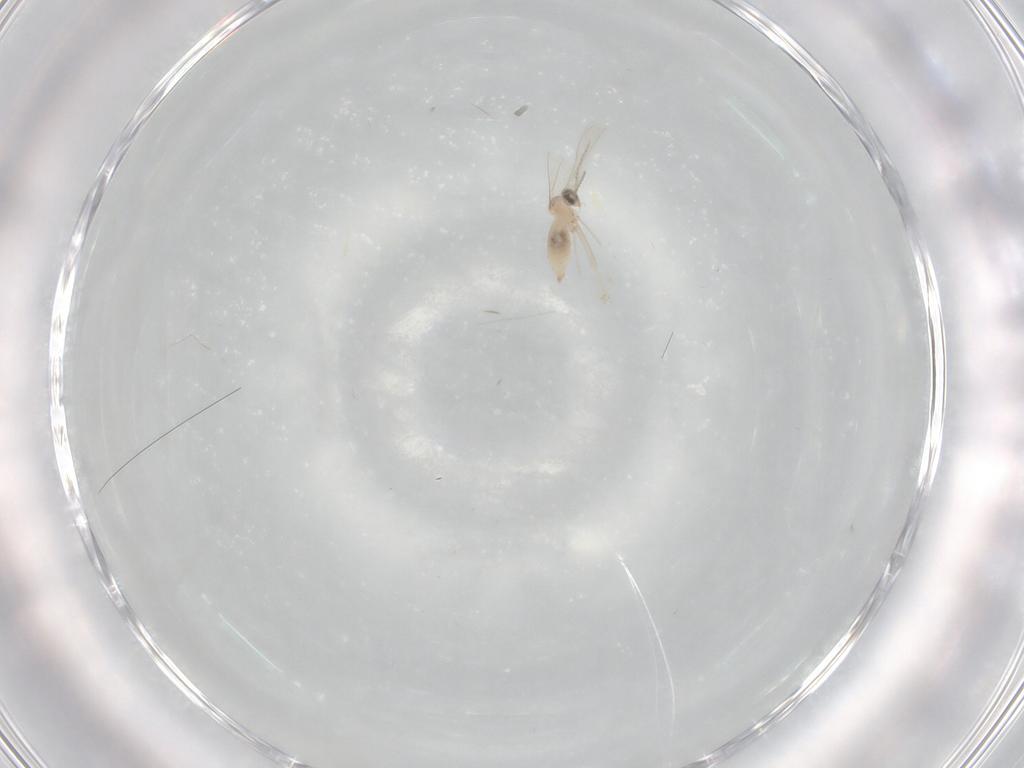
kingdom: Animalia
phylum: Arthropoda
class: Insecta
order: Diptera
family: Cecidomyiidae
